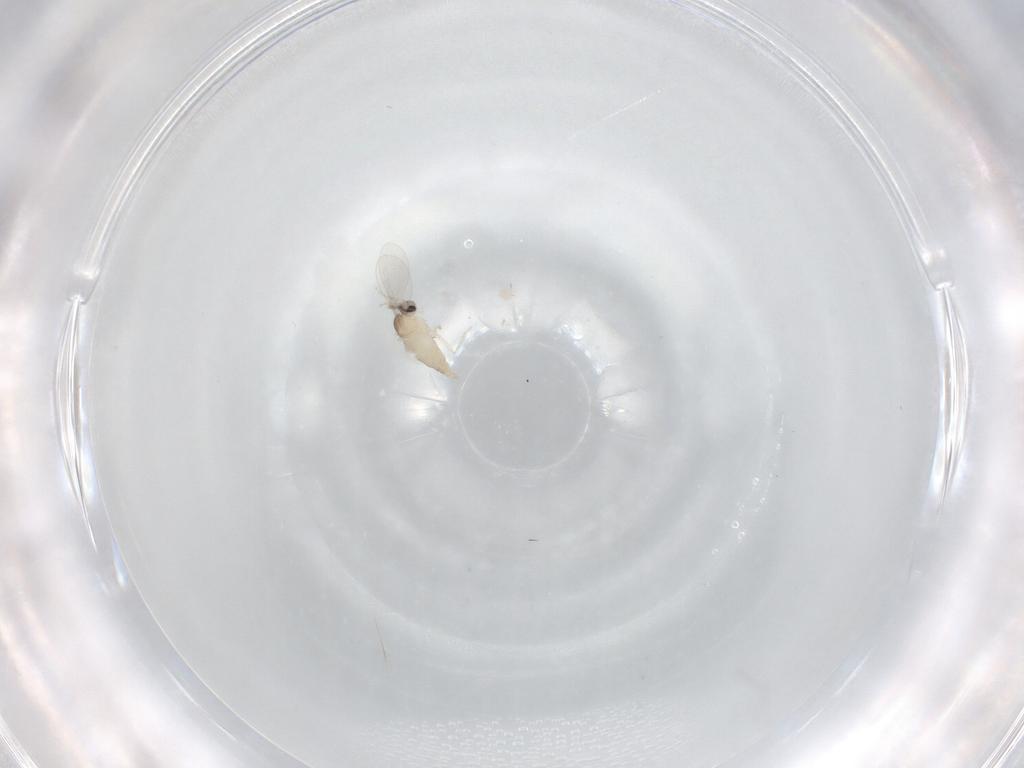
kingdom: Animalia
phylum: Arthropoda
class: Insecta
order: Diptera
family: Cecidomyiidae
